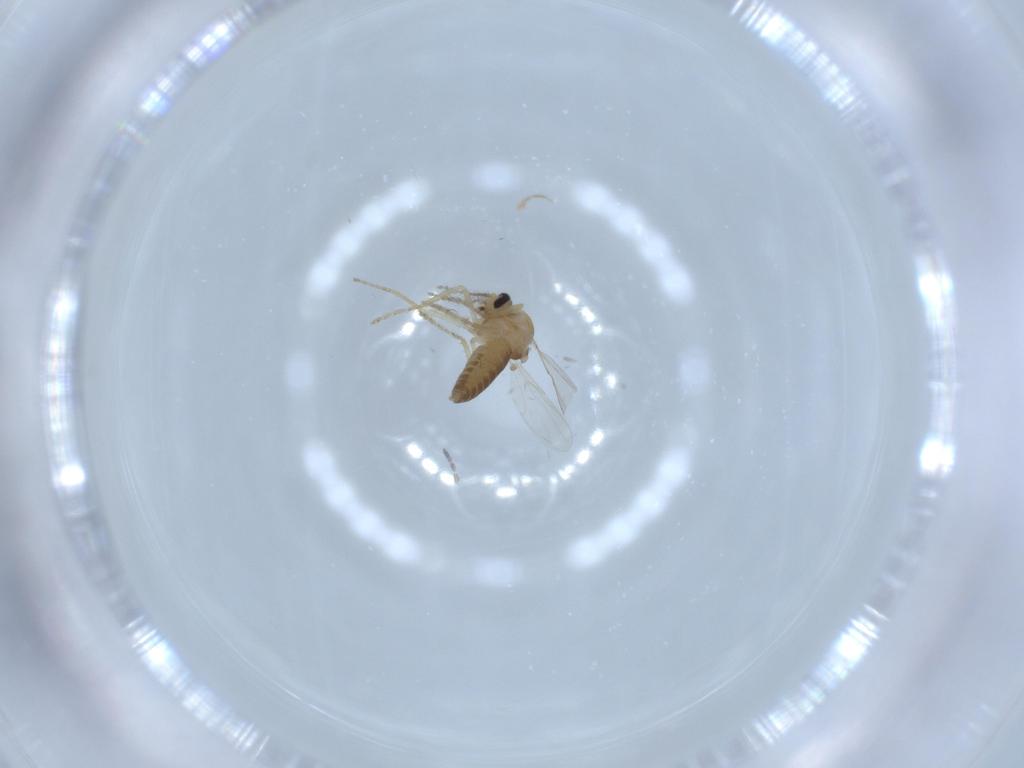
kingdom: Animalia
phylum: Arthropoda
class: Insecta
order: Diptera
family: Ceratopogonidae
